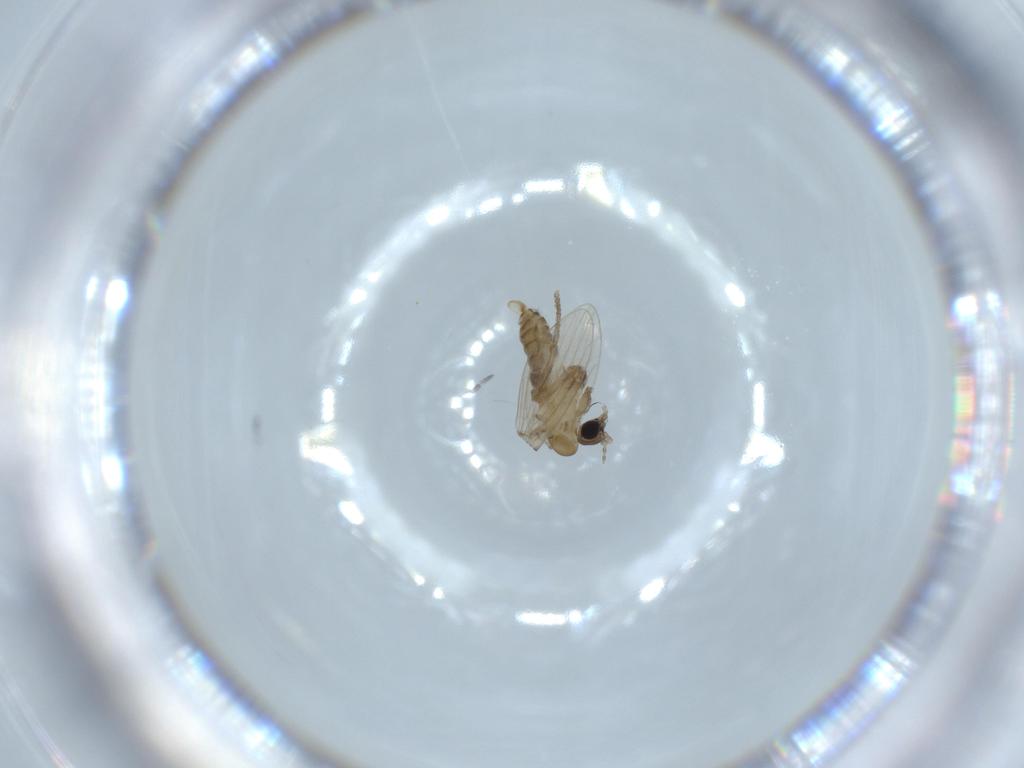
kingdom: Animalia
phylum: Arthropoda
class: Insecta
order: Diptera
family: Psychodidae
